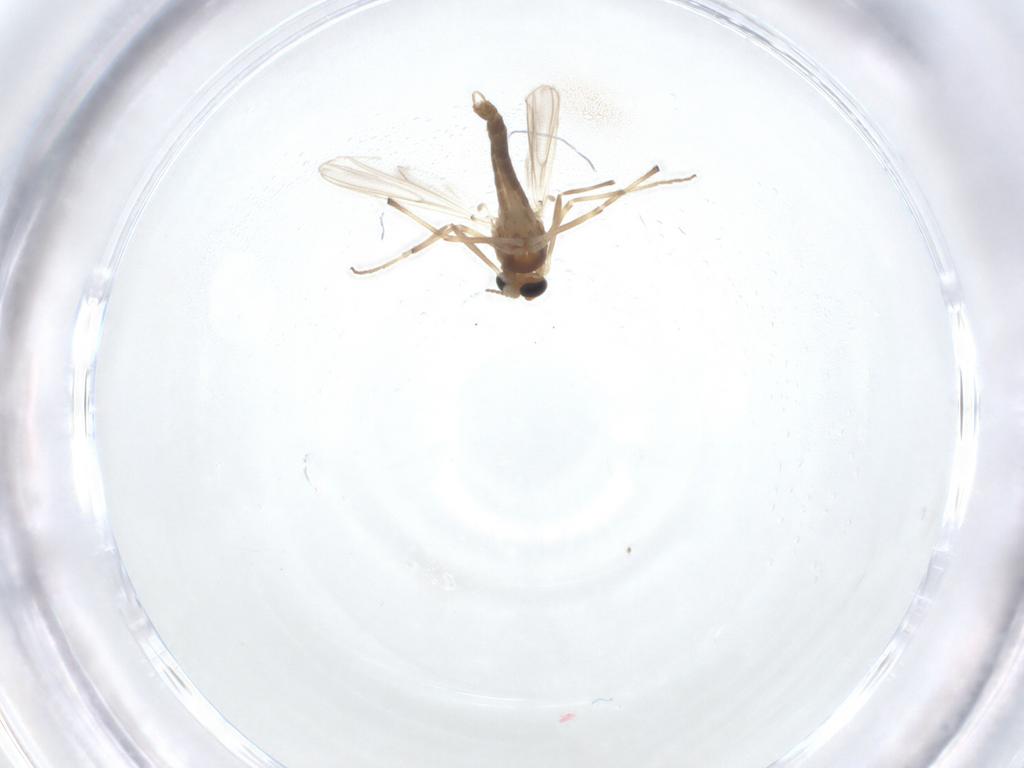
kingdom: Animalia
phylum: Arthropoda
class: Insecta
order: Diptera
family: Chironomidae
